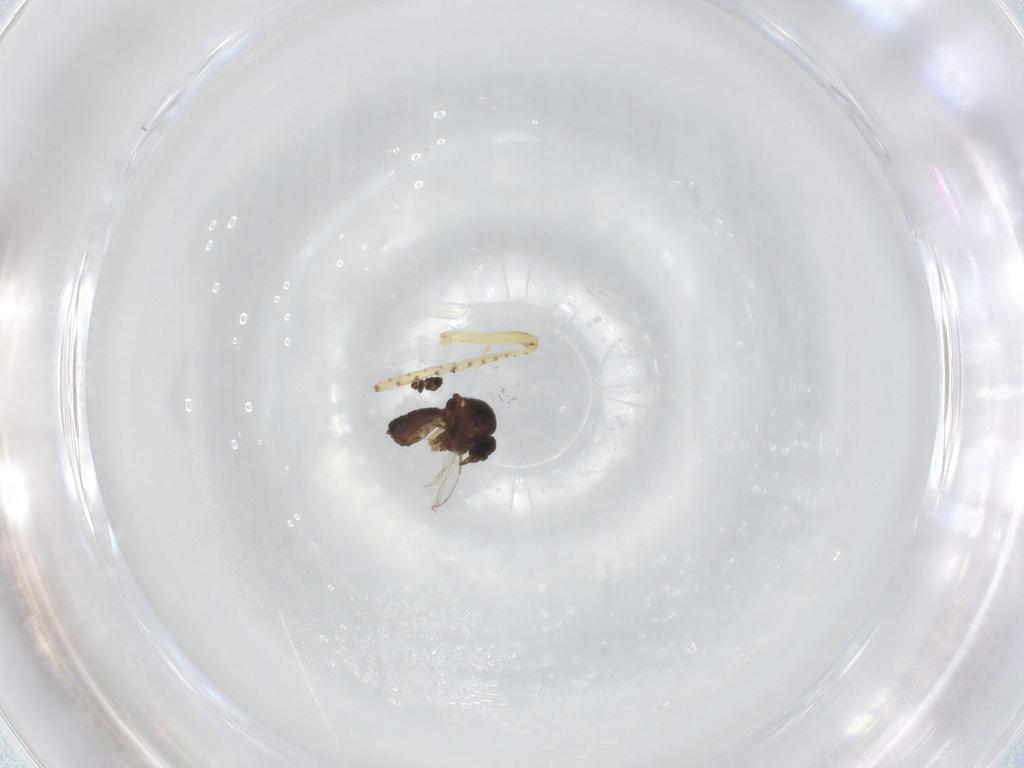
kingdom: Animalia
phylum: Arthropoda
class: Insecta
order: Diptera
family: Ceratopogonidae
